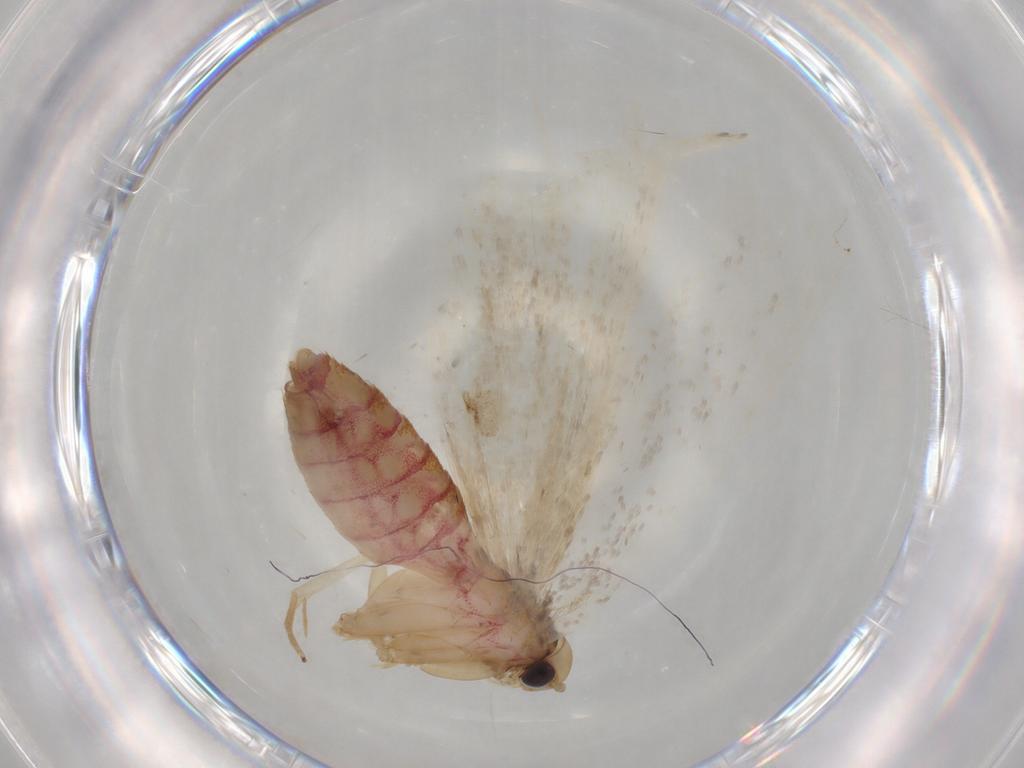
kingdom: Animalia
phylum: Arthropoda
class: Insecta
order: Lepidoptera
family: Lecithoceridae
